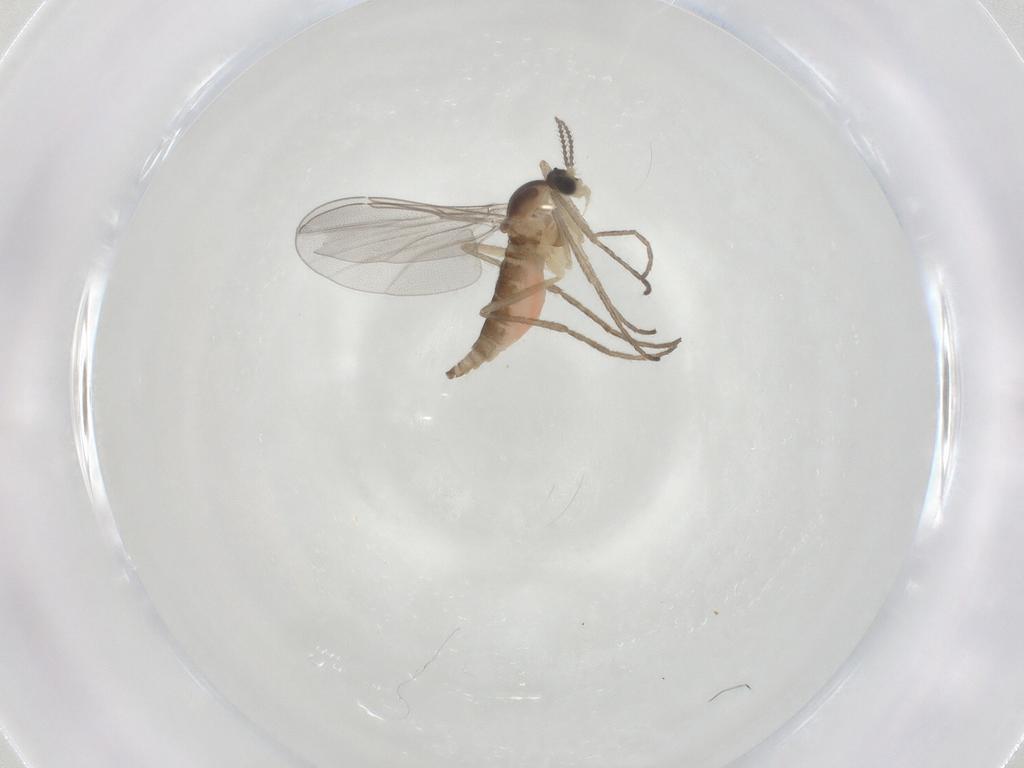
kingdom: Animalia
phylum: Arthropoda
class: Insecta
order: Diptera
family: Cecidomyiidae
